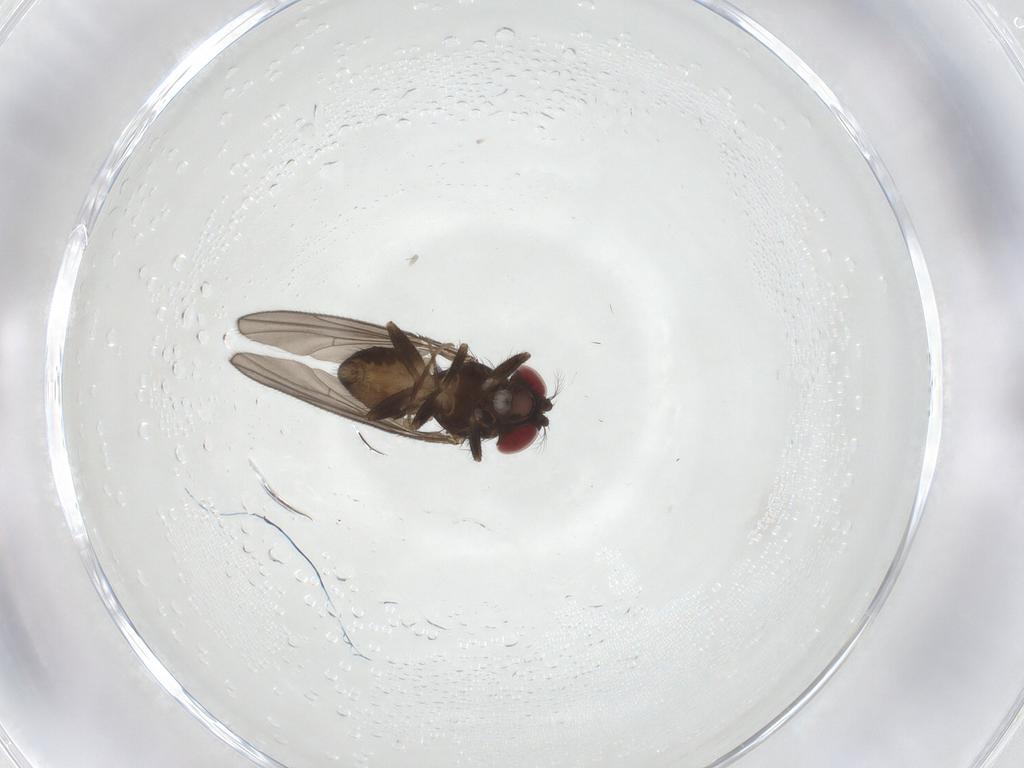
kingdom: Animalia
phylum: Arthropoda
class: Insecta
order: Diptera
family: Drosophilidae
